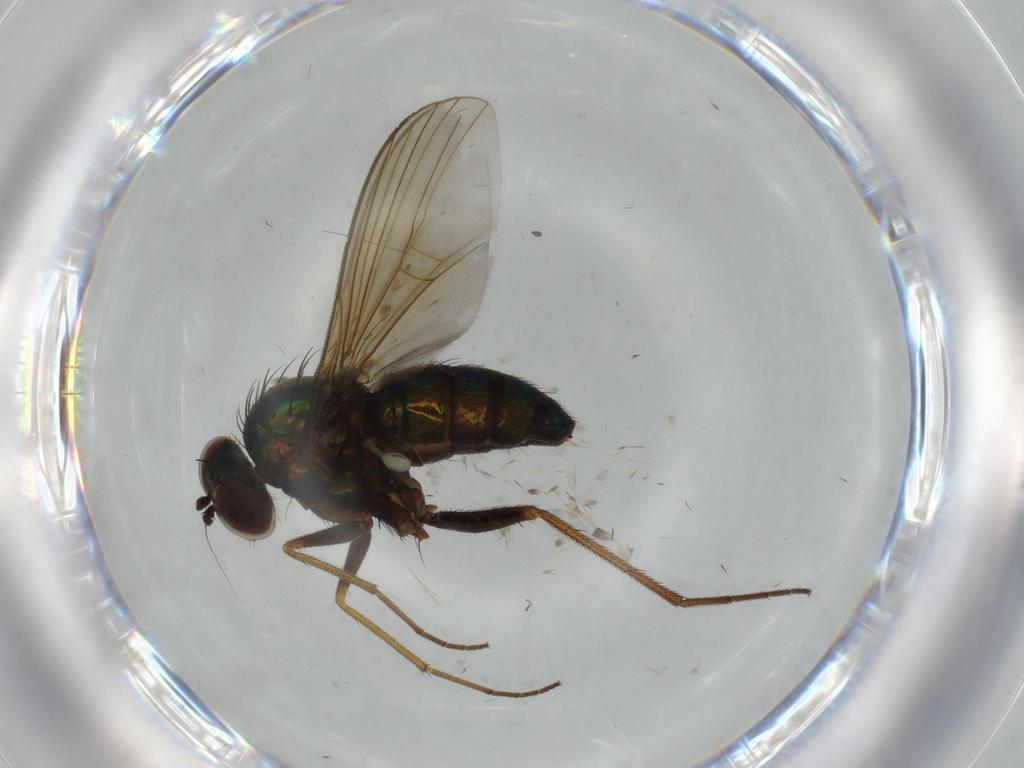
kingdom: Animalia
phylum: Arthropoda
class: Insecta
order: Diptera
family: Dolichopodidae
